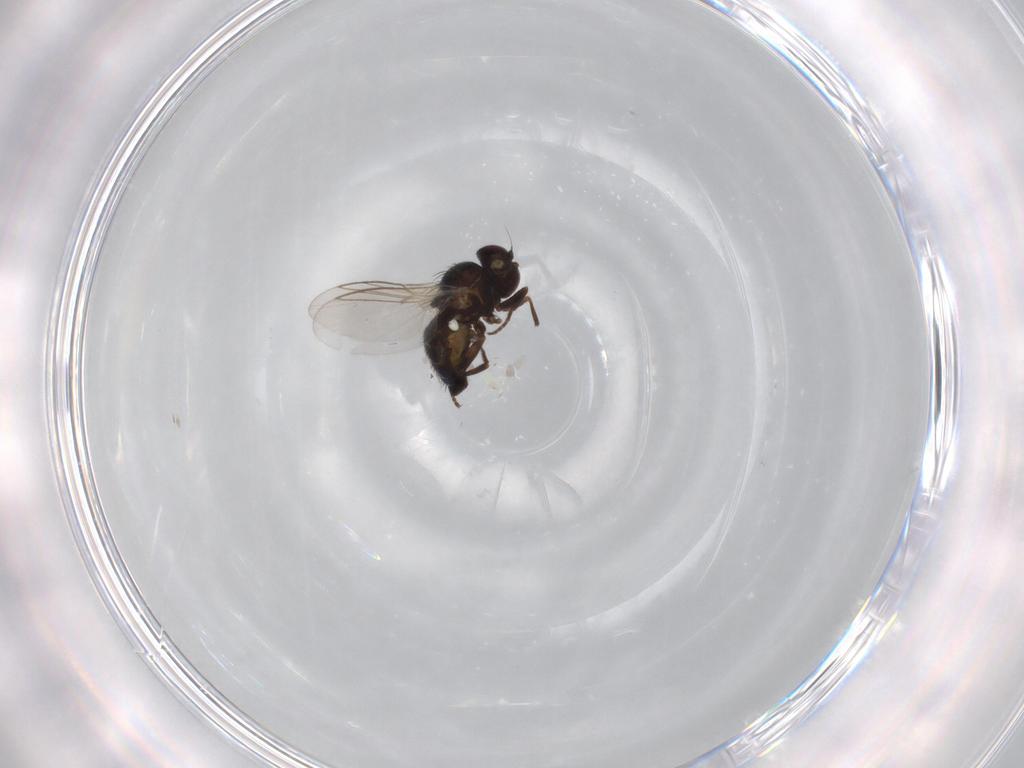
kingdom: Animalia
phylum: Arthropoda
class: Insecta
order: Diptera
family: Agromyzidae
